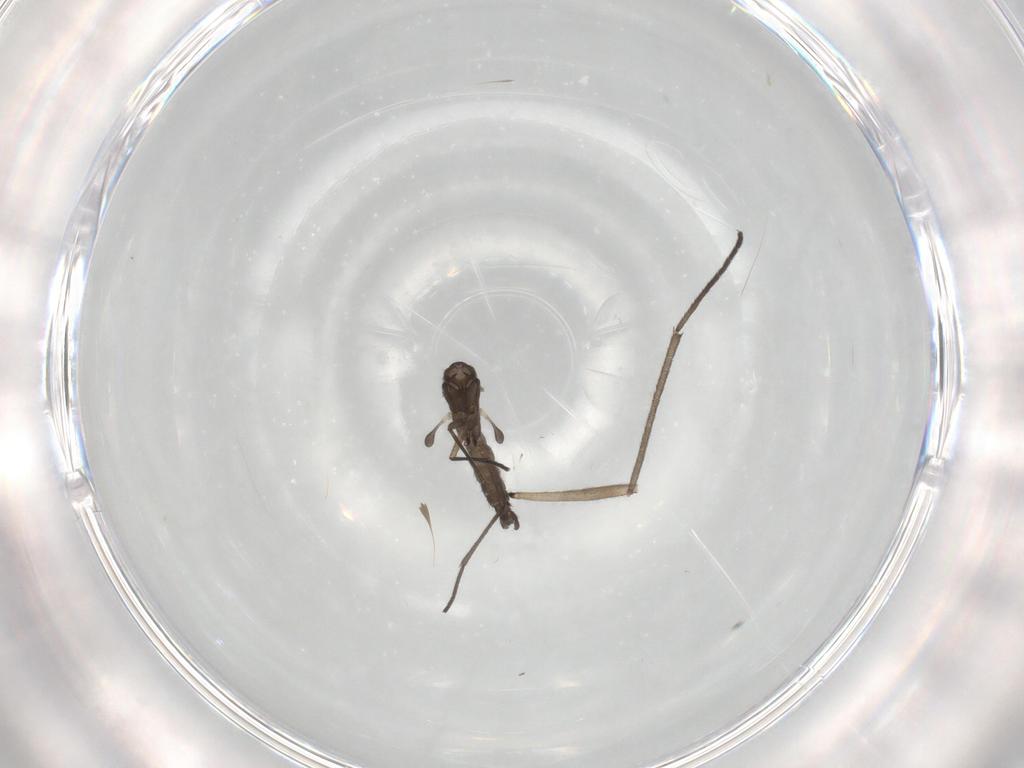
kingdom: Animalia
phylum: Arthropoda
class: Insecta
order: Diptera
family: Sciaridae
